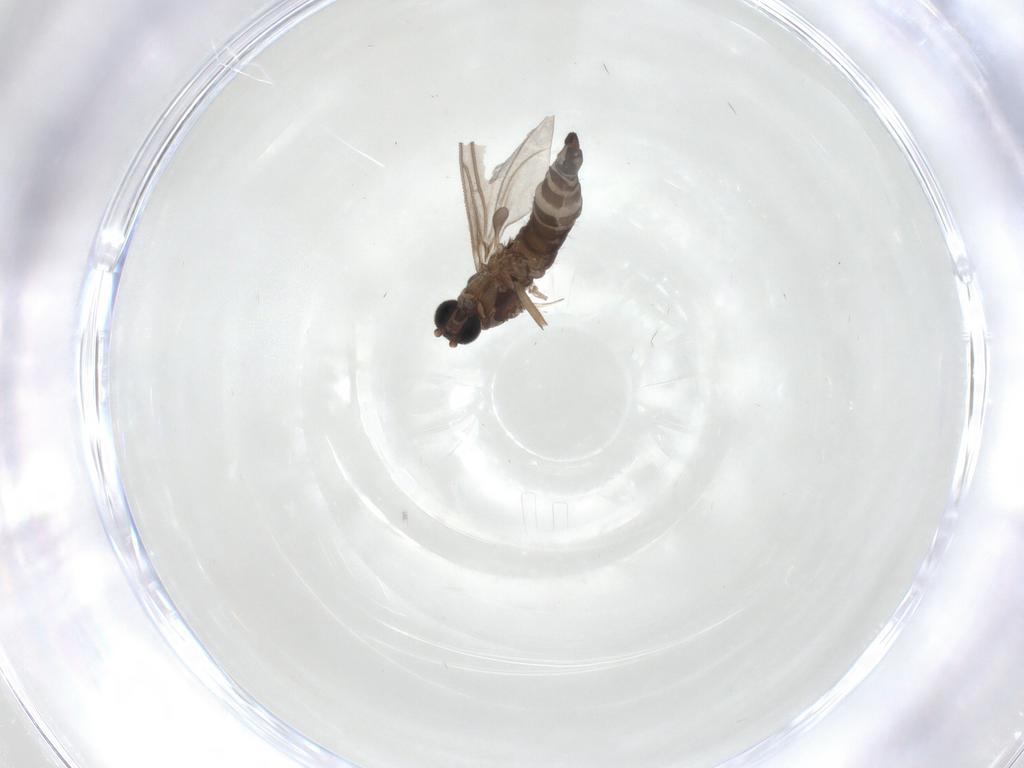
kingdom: Animalia
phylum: Arthropoda
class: Insecta
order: Diptera
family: Sciaridae
